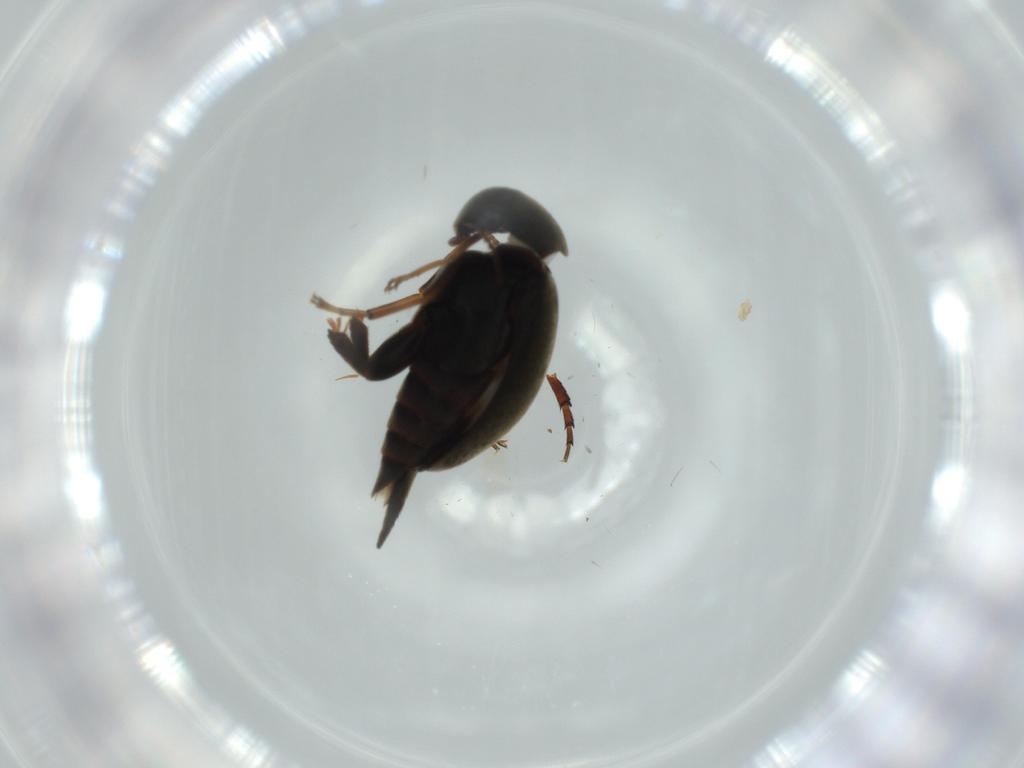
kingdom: Animalia
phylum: Arthropoda
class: Insecta
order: Coleoptera
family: Mordellidae
